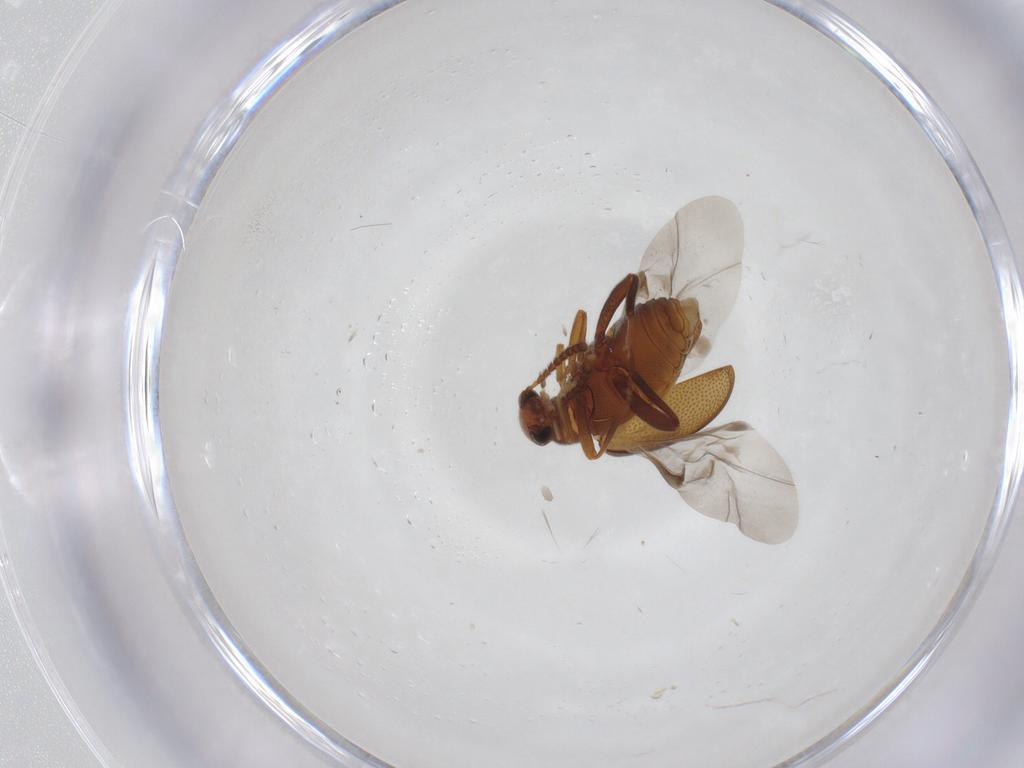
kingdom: Animalia
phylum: Arthropoda
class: Insecta
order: Coleoptera
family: Aderidae
